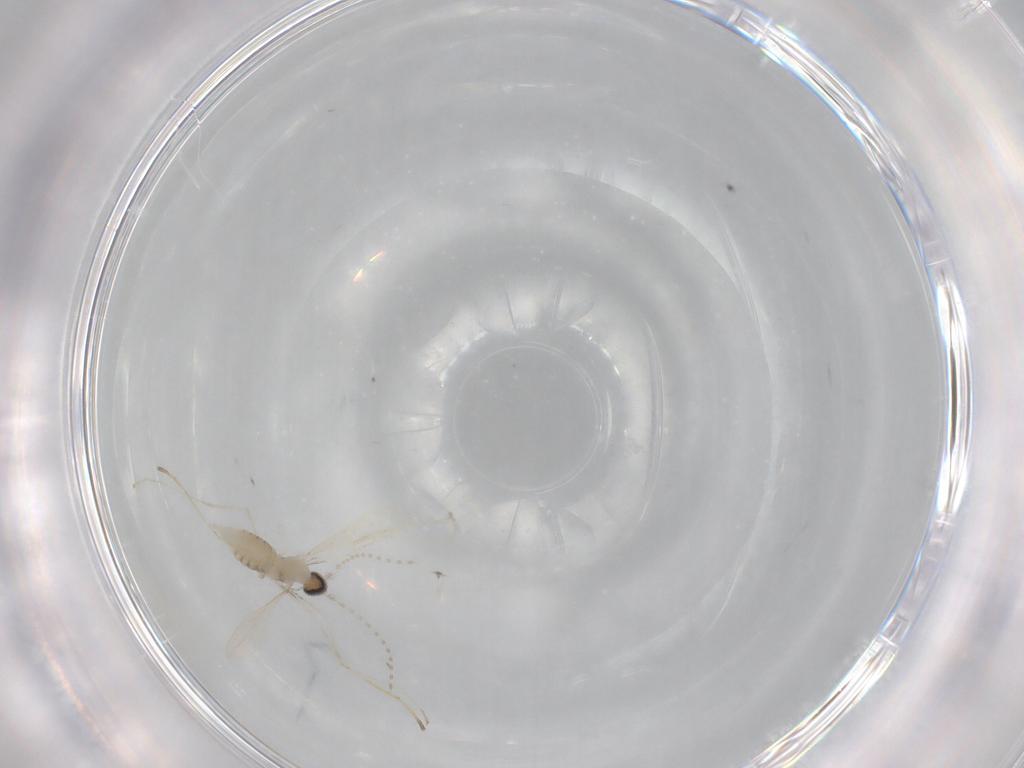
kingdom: Animalia
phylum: Arthropoda
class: Insecta
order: Diptera
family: Cecidomyiidae
